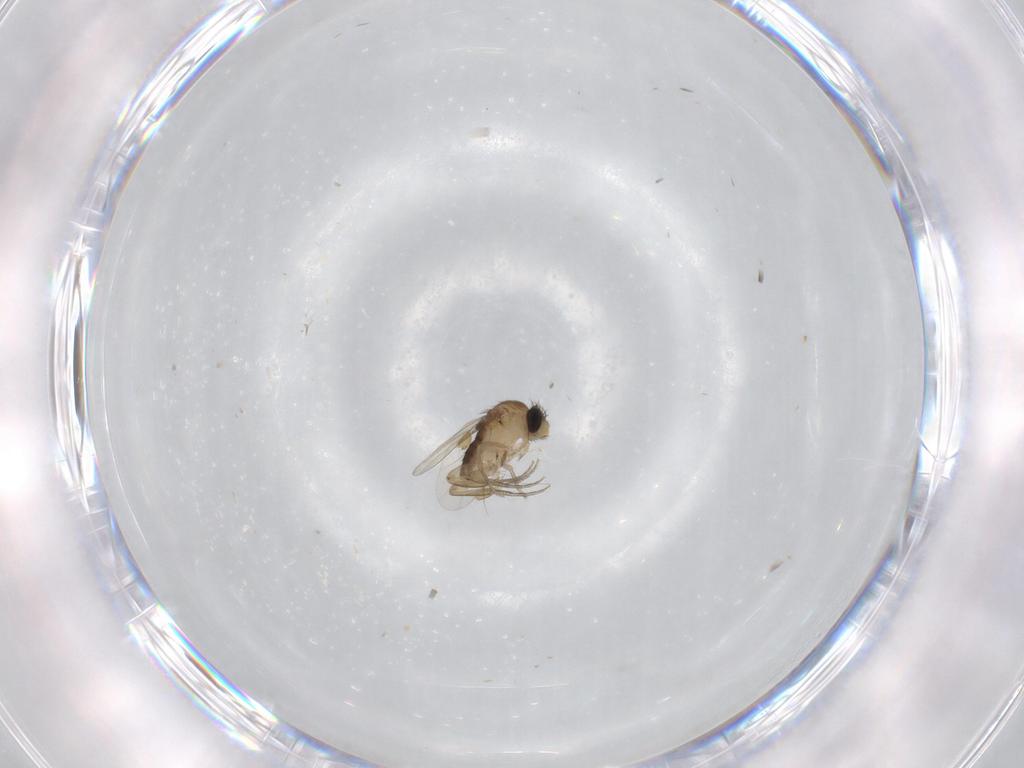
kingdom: Animalia
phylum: Arthropoda
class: Insecta
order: Diptera
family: Phoridae
